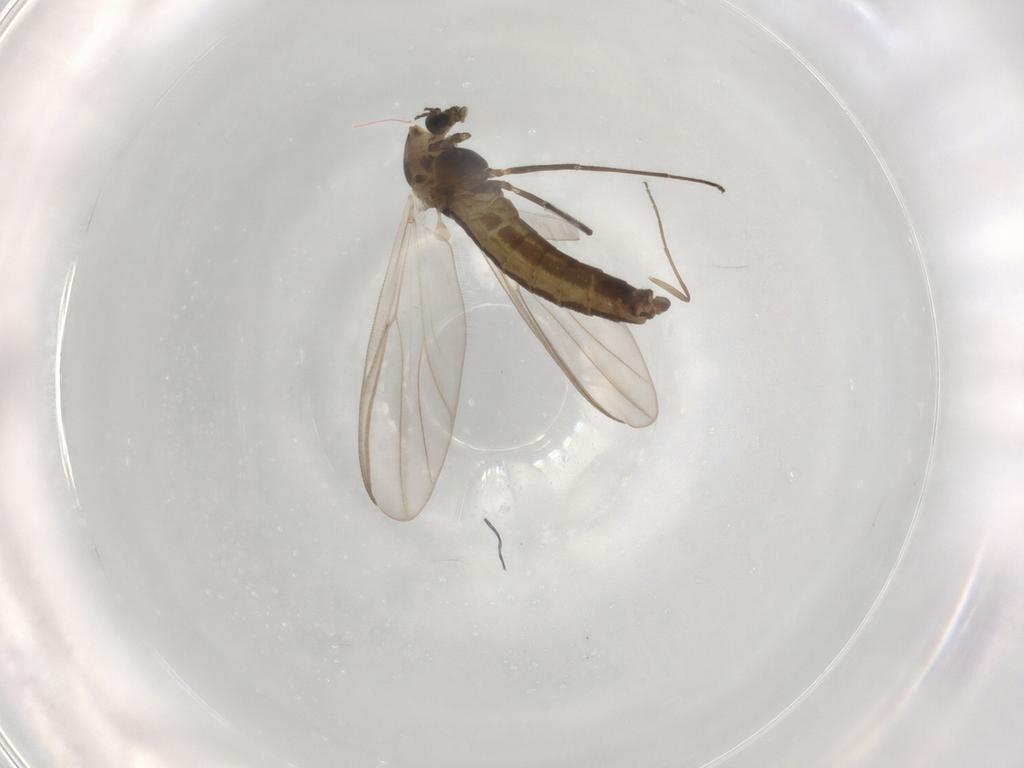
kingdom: Animalia
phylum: Arthropoda
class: Insecta
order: Diptera
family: Chironomidae
